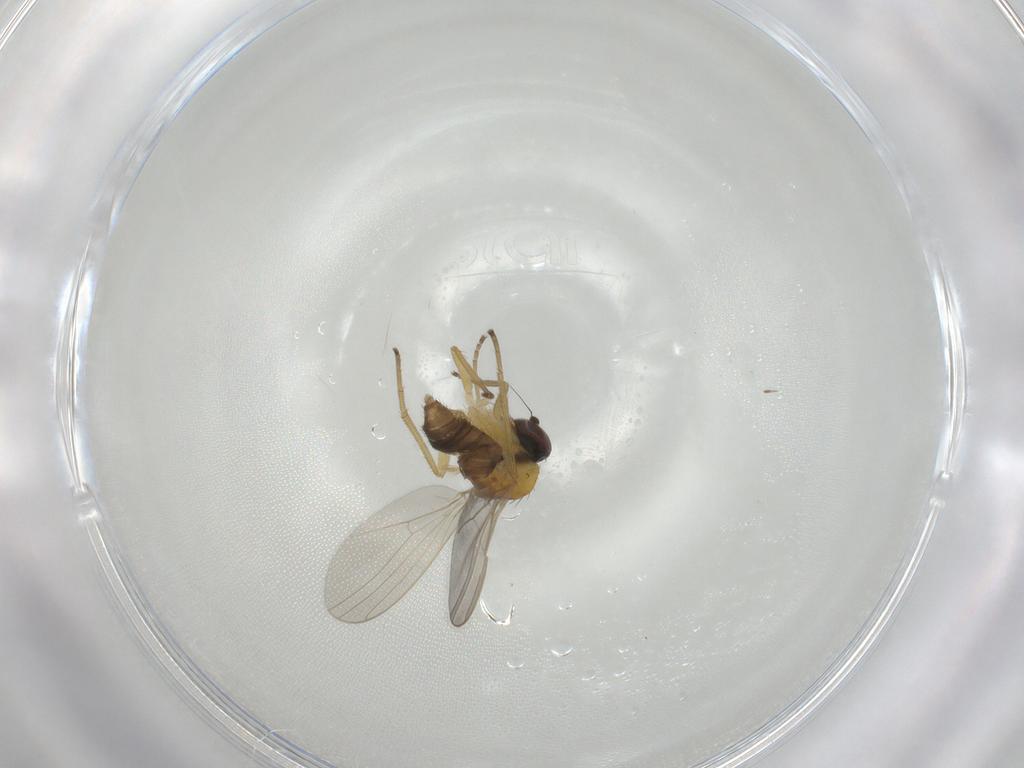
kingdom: Animalia
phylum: Arthropoda
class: Insecta
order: Diptera
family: Dolichopodidae
